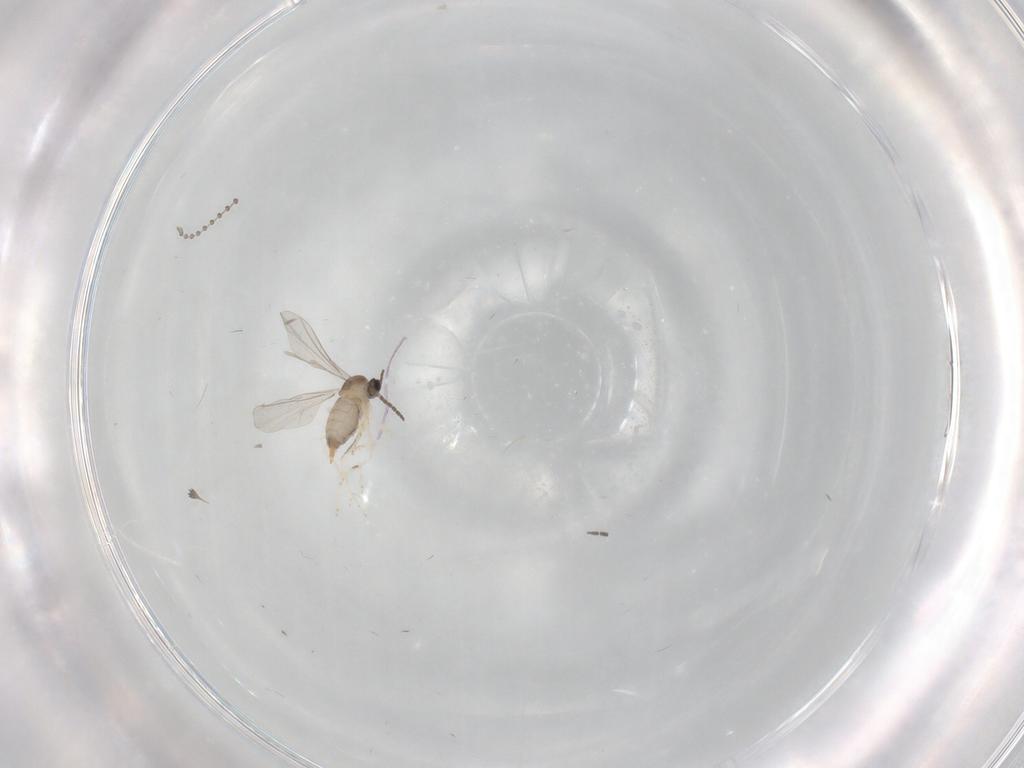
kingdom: Animalia
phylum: Arthropoda
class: Insecta
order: Diptera
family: Cecidomyiidae
